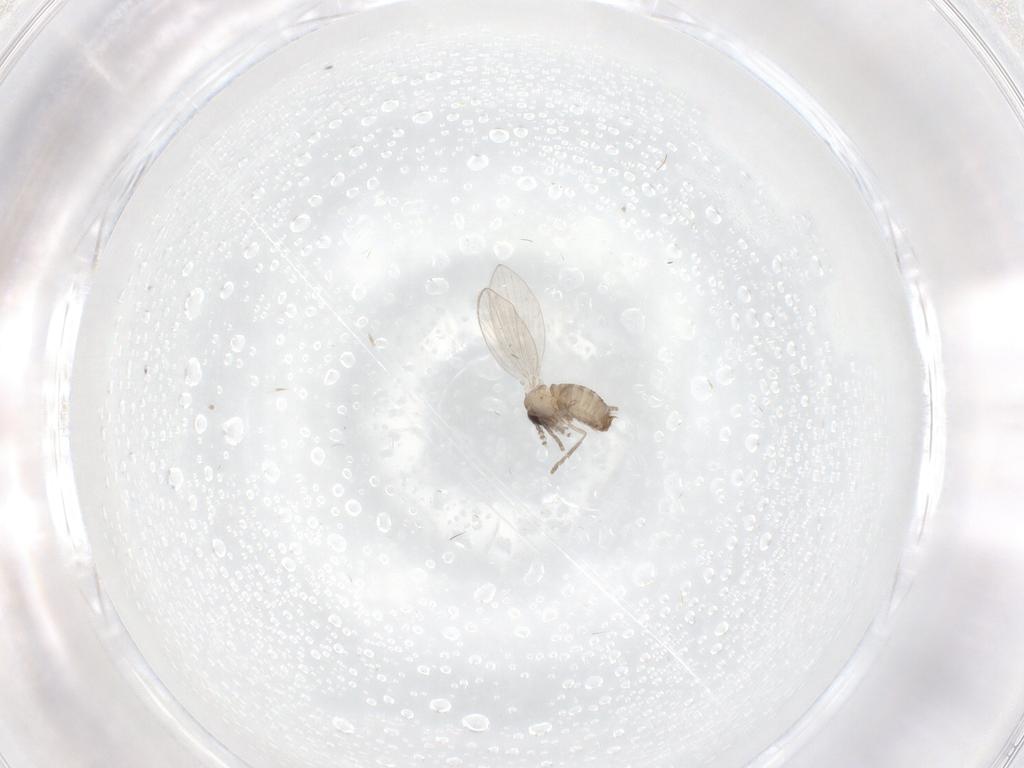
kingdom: Animalia
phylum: Arthropoda
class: Insecta
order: Diptera
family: Psychodidae
